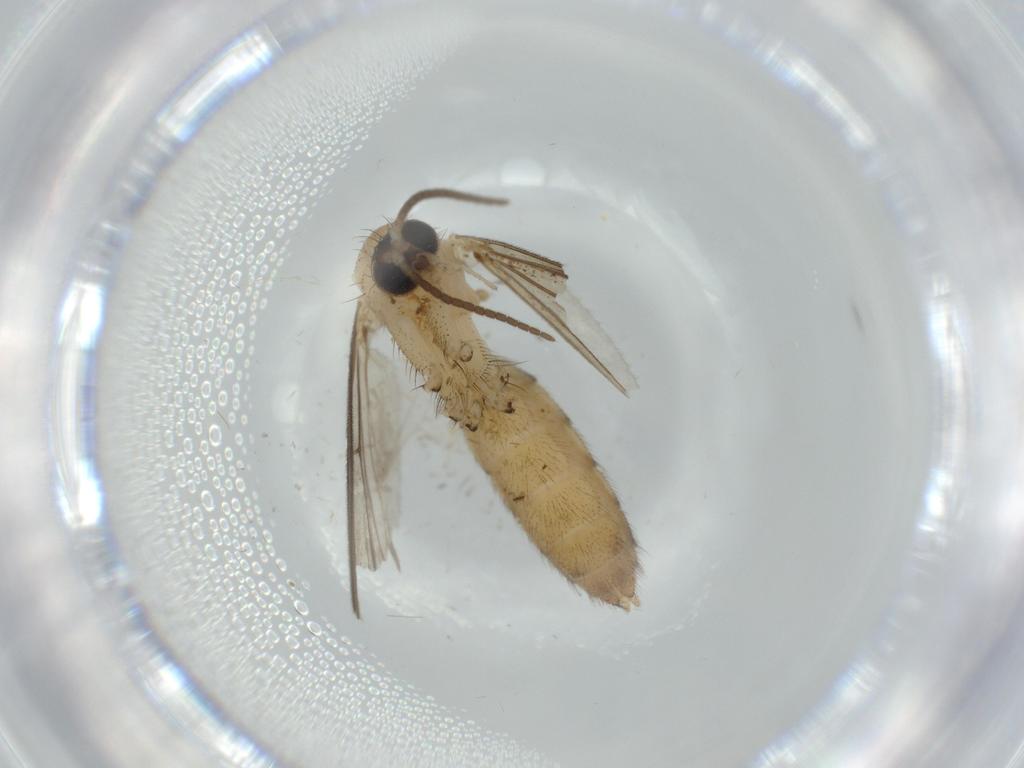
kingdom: Animalia
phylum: Arthropoda
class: Insecta
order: Diptera
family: Mycetophilidae
